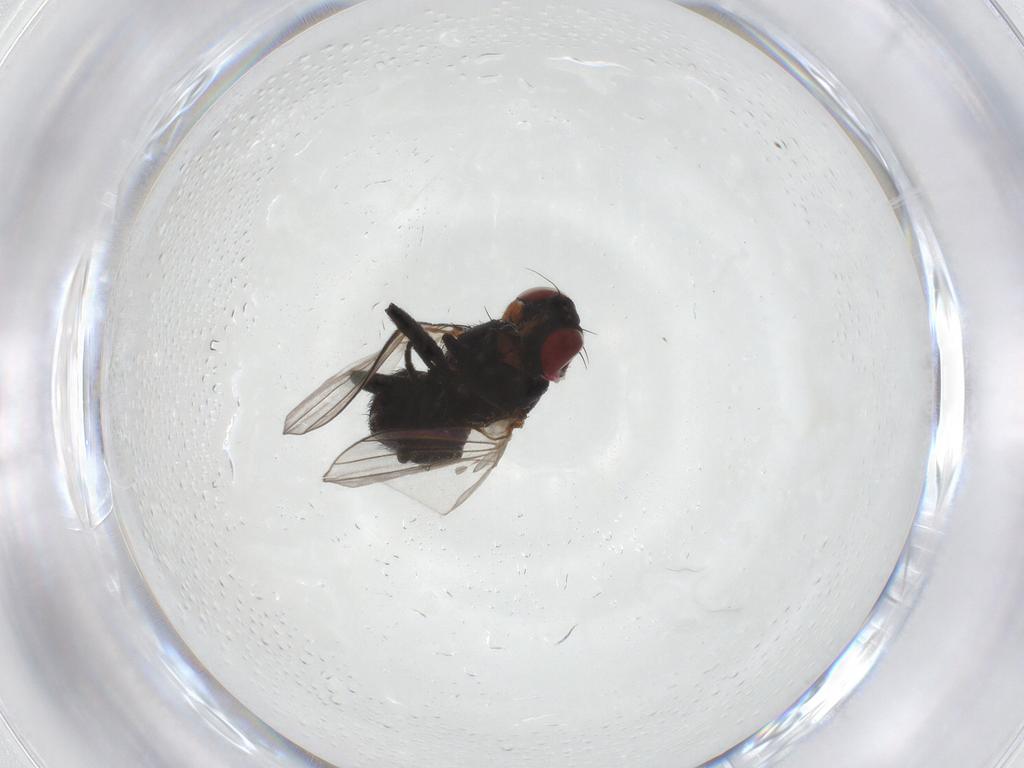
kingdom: Animalia
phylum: Arthropoda
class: Insecta
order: Diptera
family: Agromyzidae
